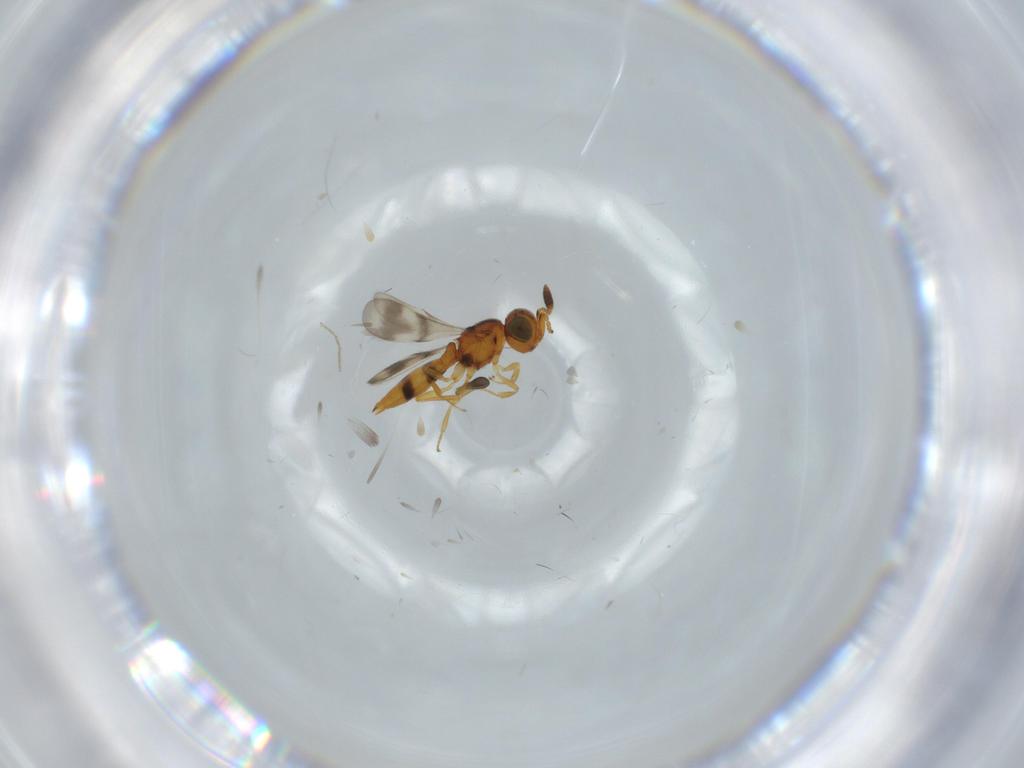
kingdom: Animalia
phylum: Arthropoda
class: Insecta
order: Hymenoptera
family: Scelionidae
